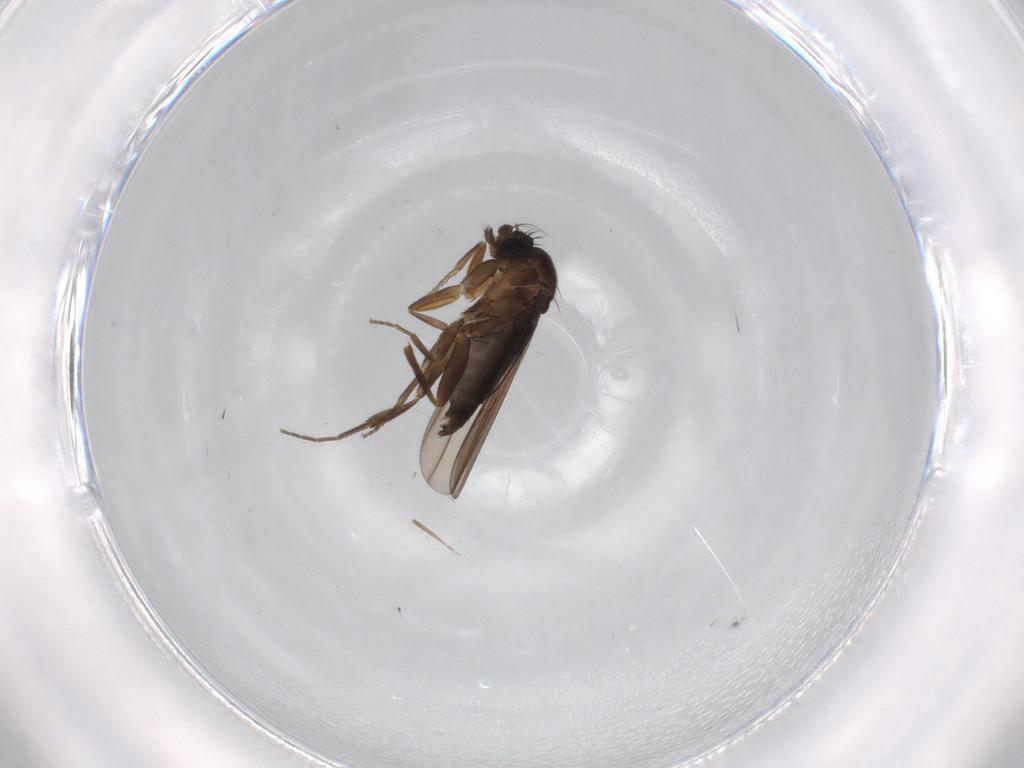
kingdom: Animalia
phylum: Arthropoda
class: Insecta
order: Diptera
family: Phoridae
